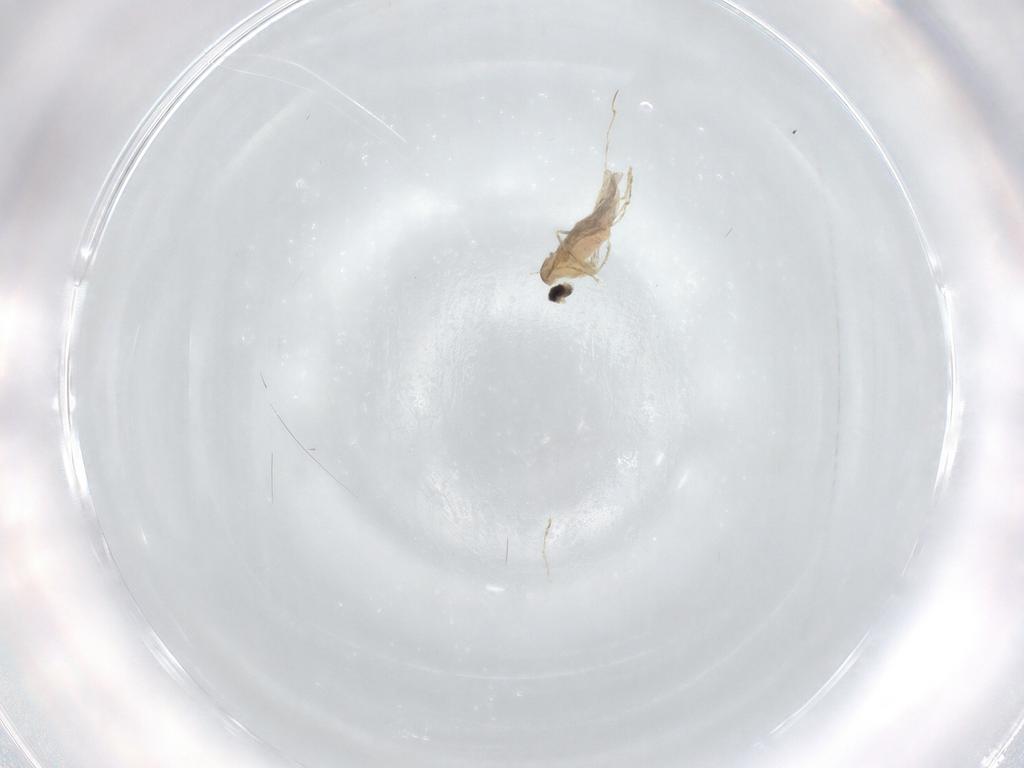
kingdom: Animalia
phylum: Arthropoda
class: Insecta
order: Diptera
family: Cecidomyiidae
